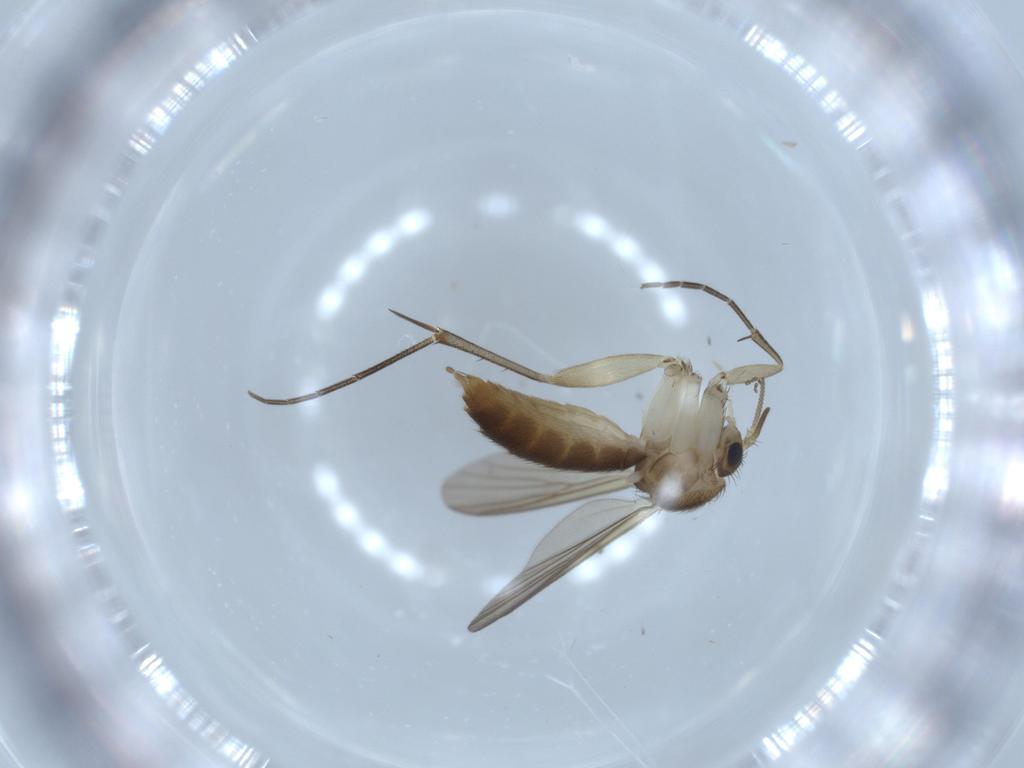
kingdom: Animalia
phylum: Arthropoda
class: Insecta
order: Diptera
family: Mycetophilidae
